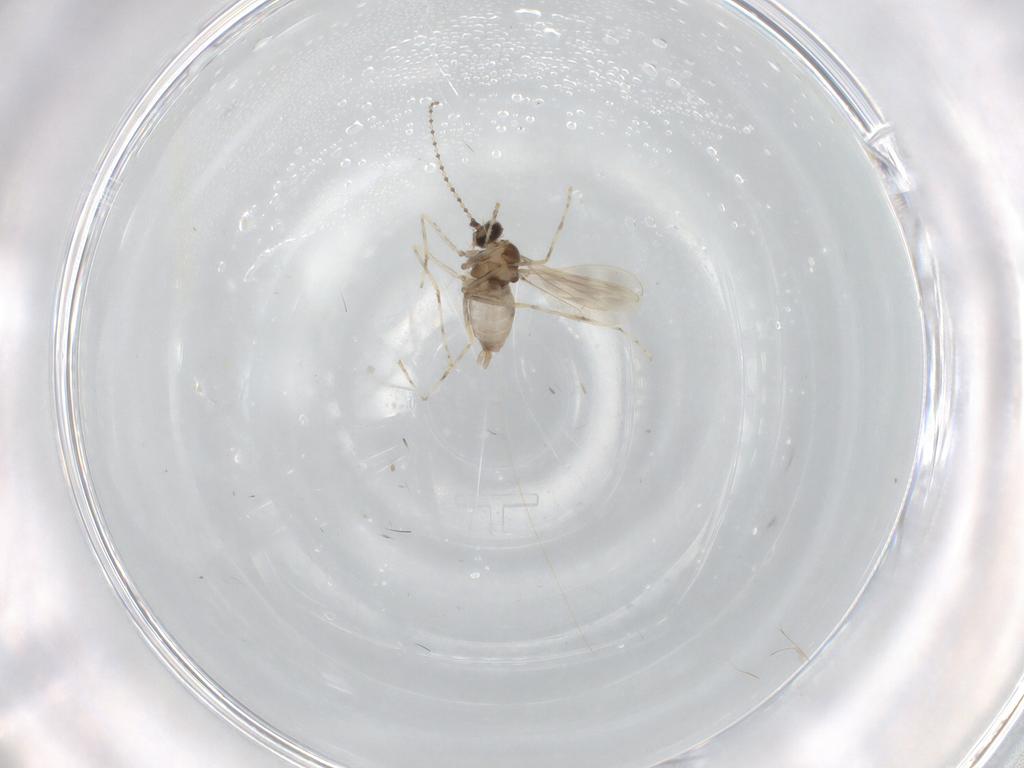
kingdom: Animalia
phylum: Arthropoda
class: Insecta
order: Diptera
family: Cecidomyiidae
